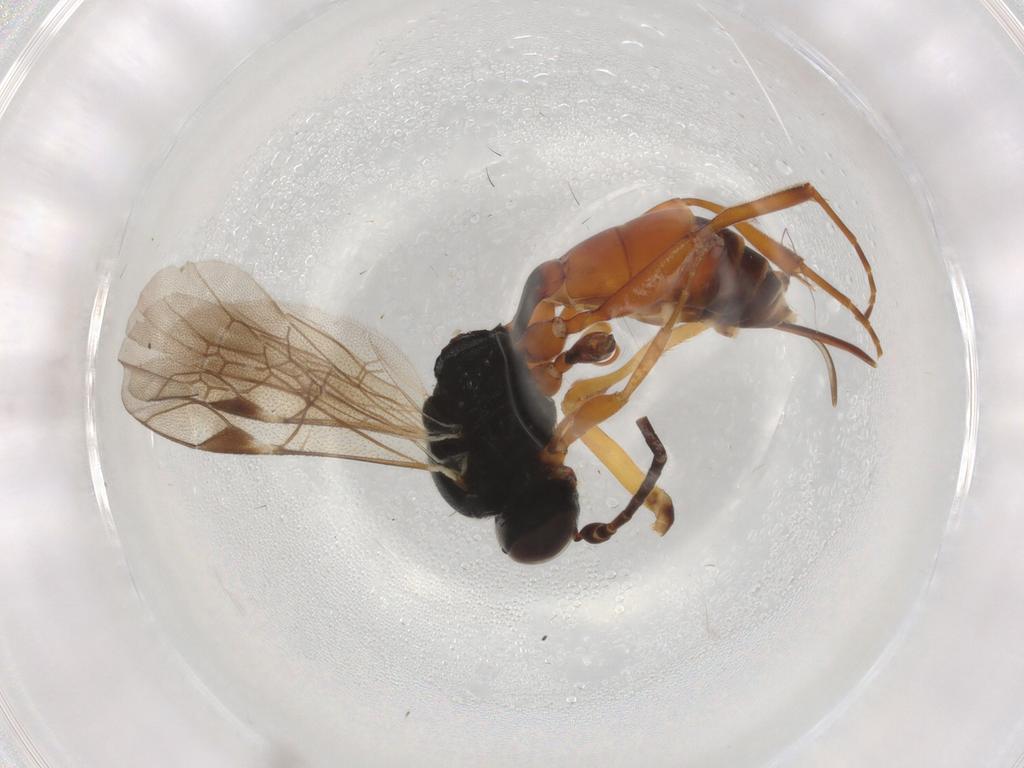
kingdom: Animalia
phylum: Arthropoda
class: Insecta
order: Hymenoptera
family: Ichneumonidae
